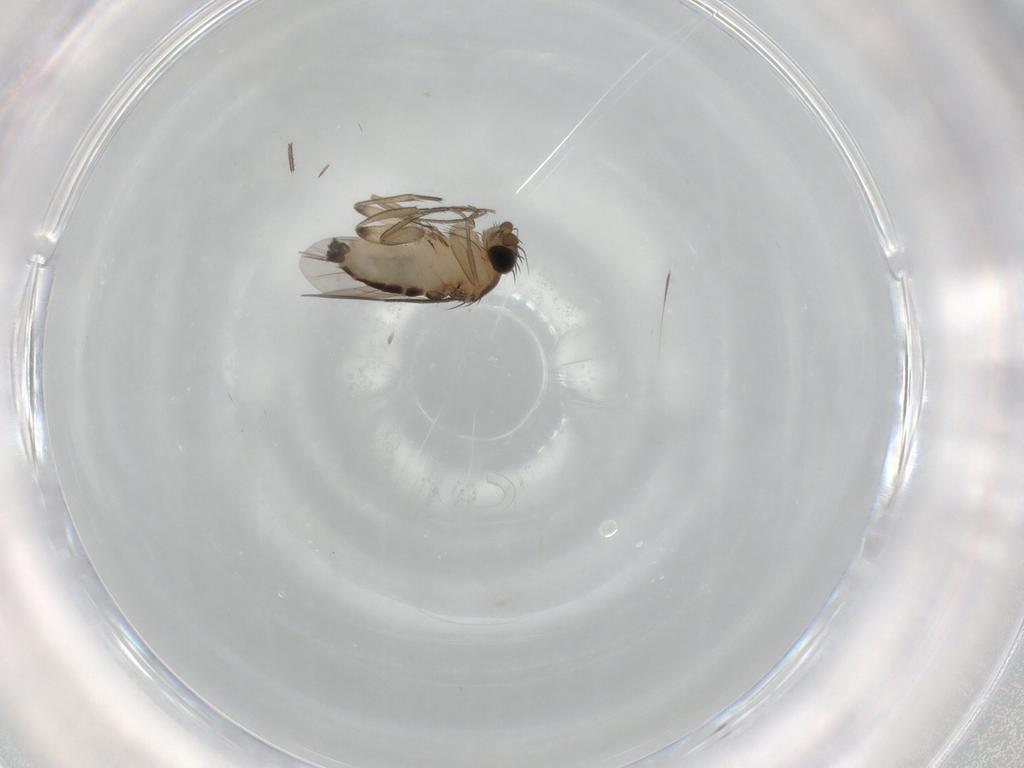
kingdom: Animalia
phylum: Arthropoda
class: Insecta
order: Diptera
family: Phoridae
